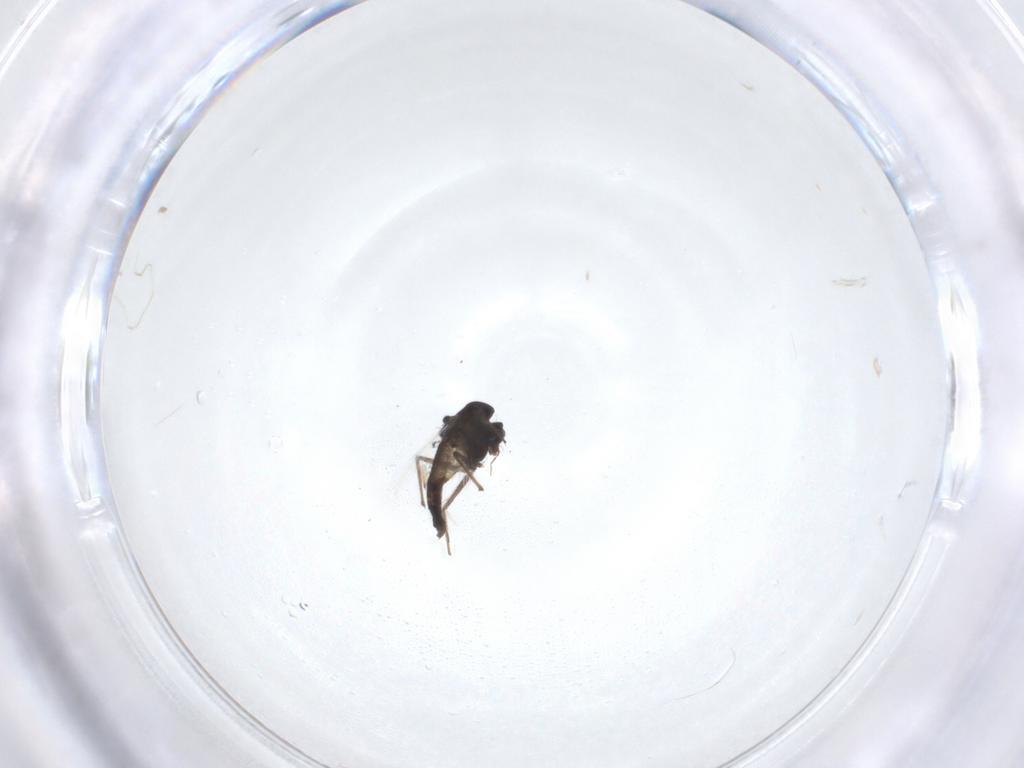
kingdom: Animalia
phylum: Arthropoda
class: Insecta
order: Diptera
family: Chironomidae
